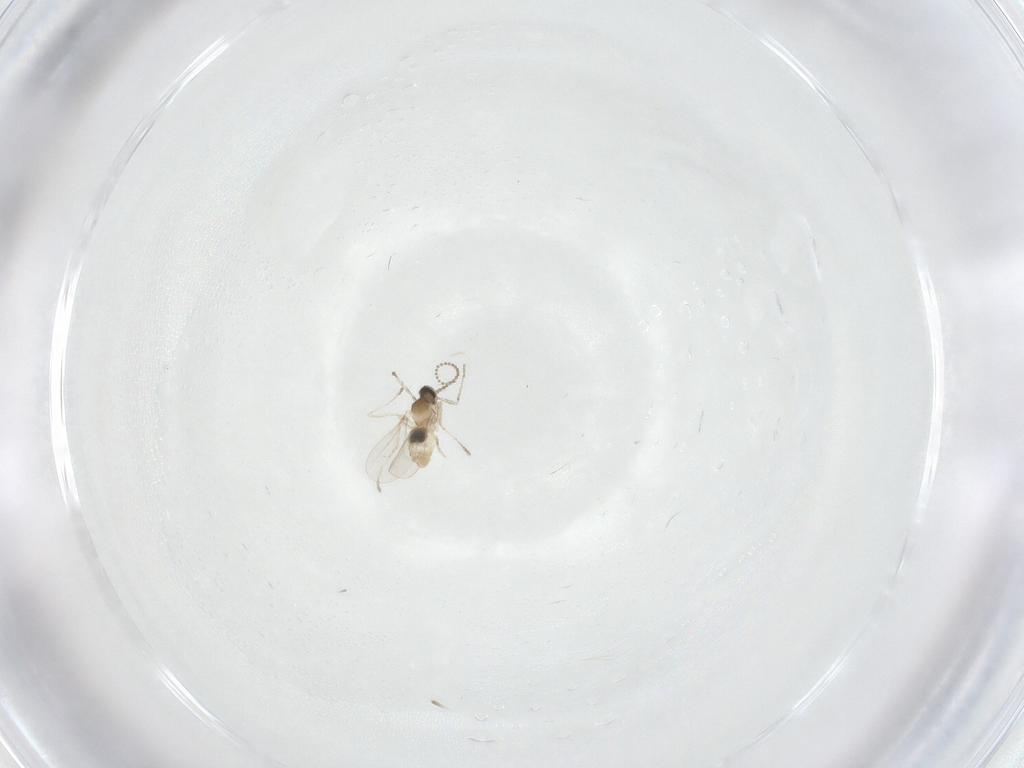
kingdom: Animalia
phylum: Arthropoda
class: Insecta
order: Diptera
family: Cecidomyiidae
